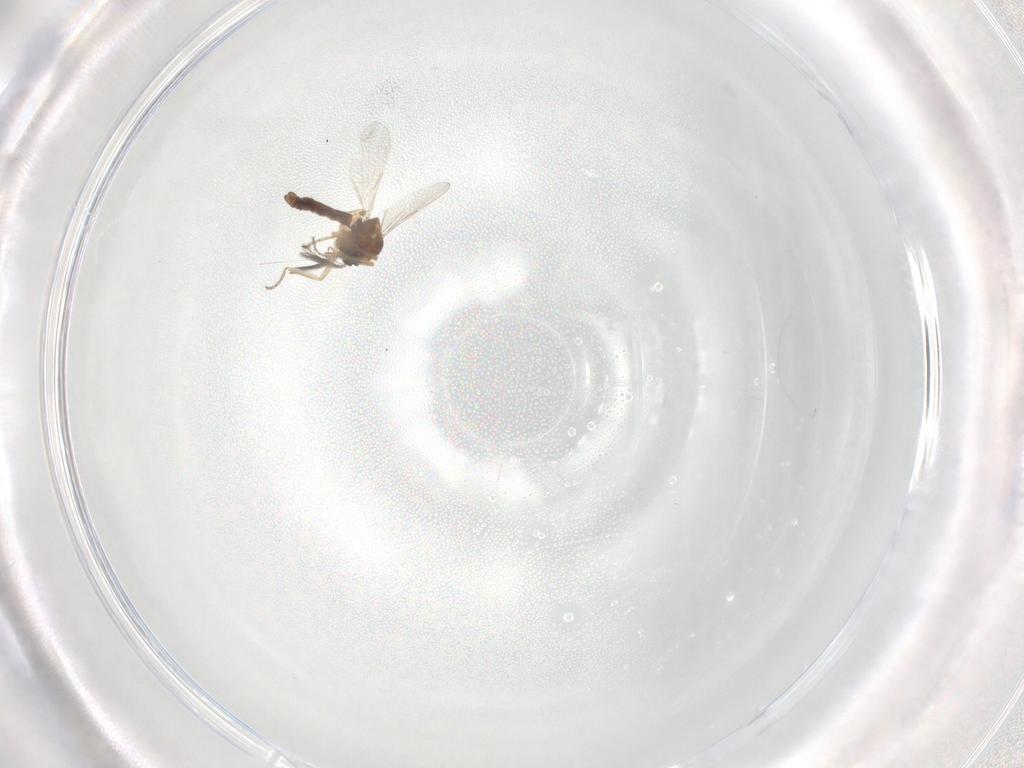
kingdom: Animalia
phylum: Arthropoda
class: Insecta
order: Diptera
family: Ceratopogonidae
